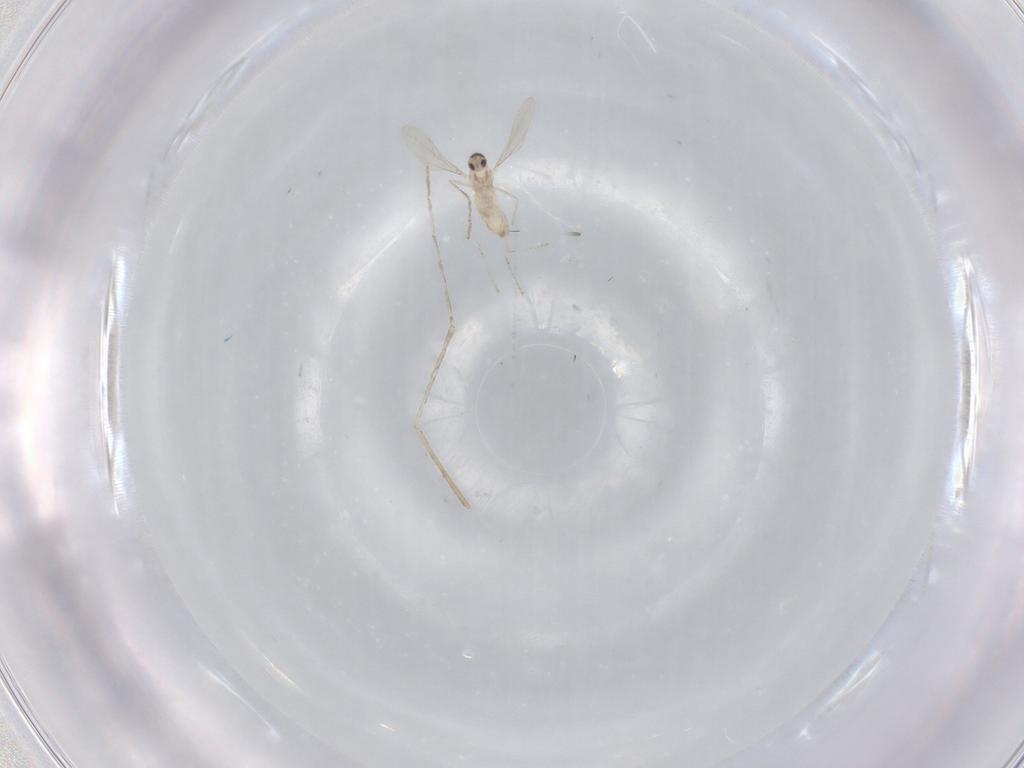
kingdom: Animalia
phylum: Arthropoda
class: Insecta
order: Diptera
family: Cecidomyiidae
